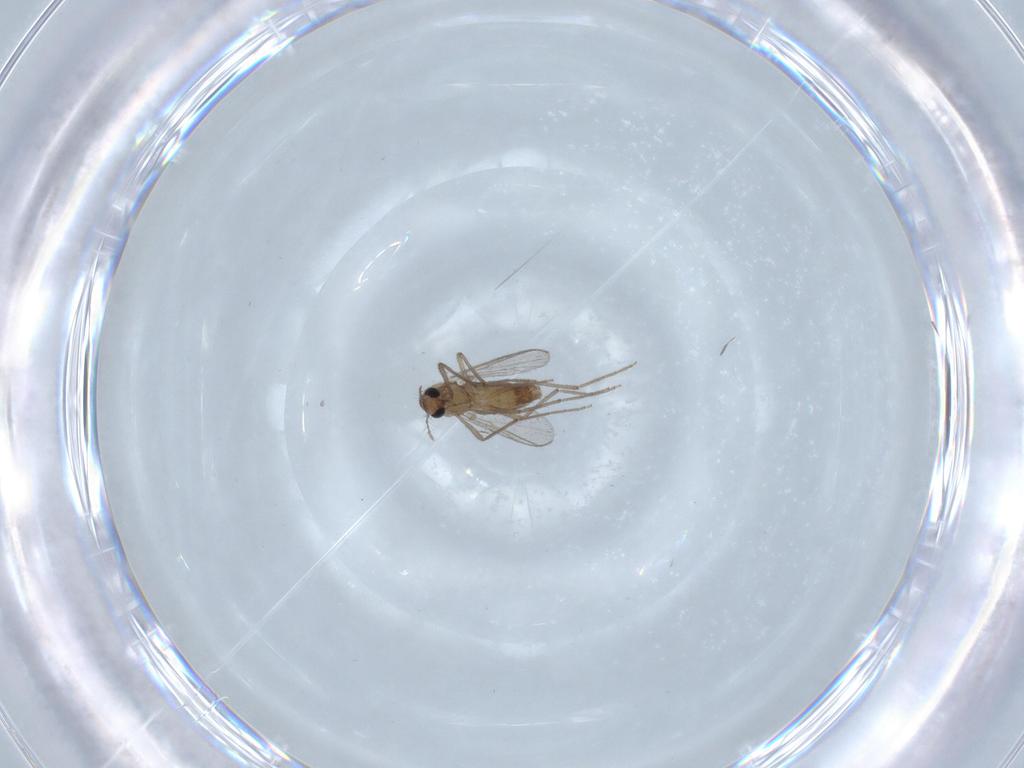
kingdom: Animalia
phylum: Arthropoda
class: Insecta
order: Diptera
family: Chironomidae
